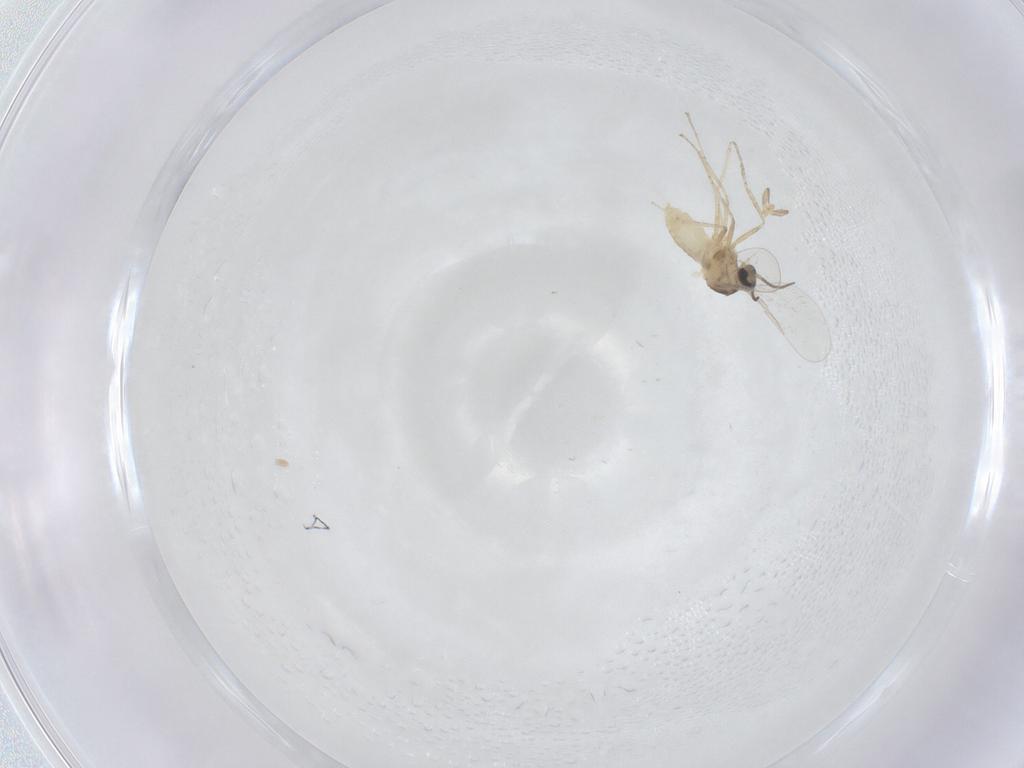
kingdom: Animalia
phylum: Arthropoda
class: Insecta
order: Diptera
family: Cecidomyiidae
